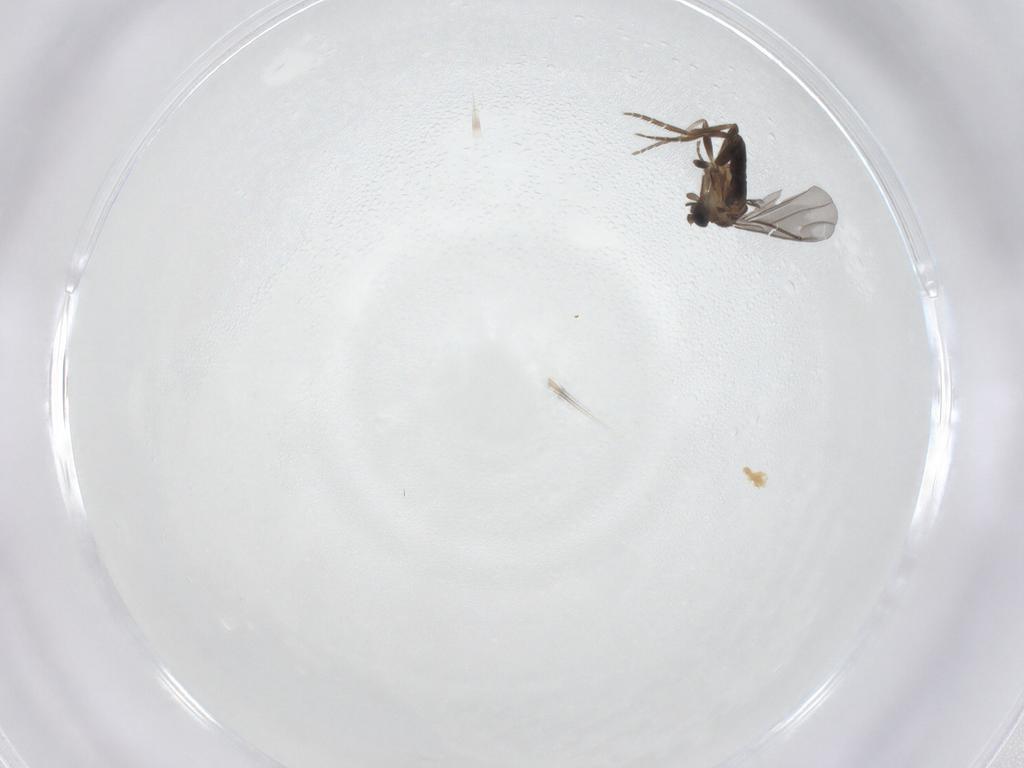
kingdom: Animalia
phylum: Arthropoda
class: Insecta
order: Diptera
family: Phoridae
